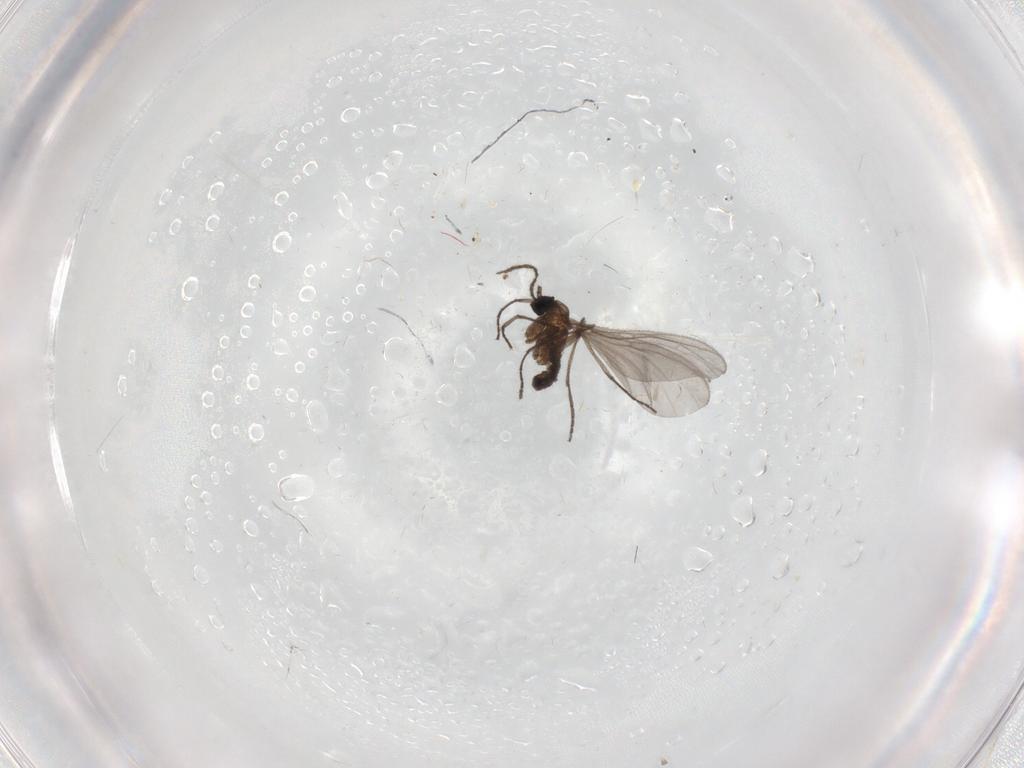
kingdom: Animalia
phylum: Arthropoda
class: Insecta
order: Diptera
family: Sciaridae
